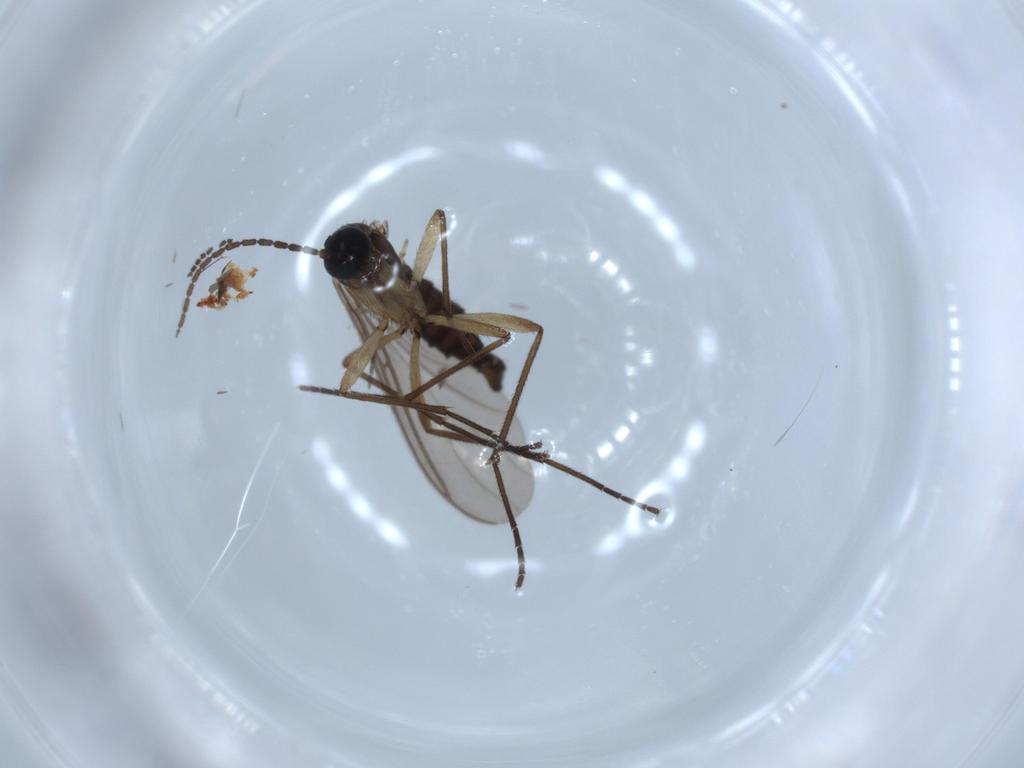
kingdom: Animalia
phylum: Arthropoda
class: Insecta
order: Diptera
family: Sciaridae
